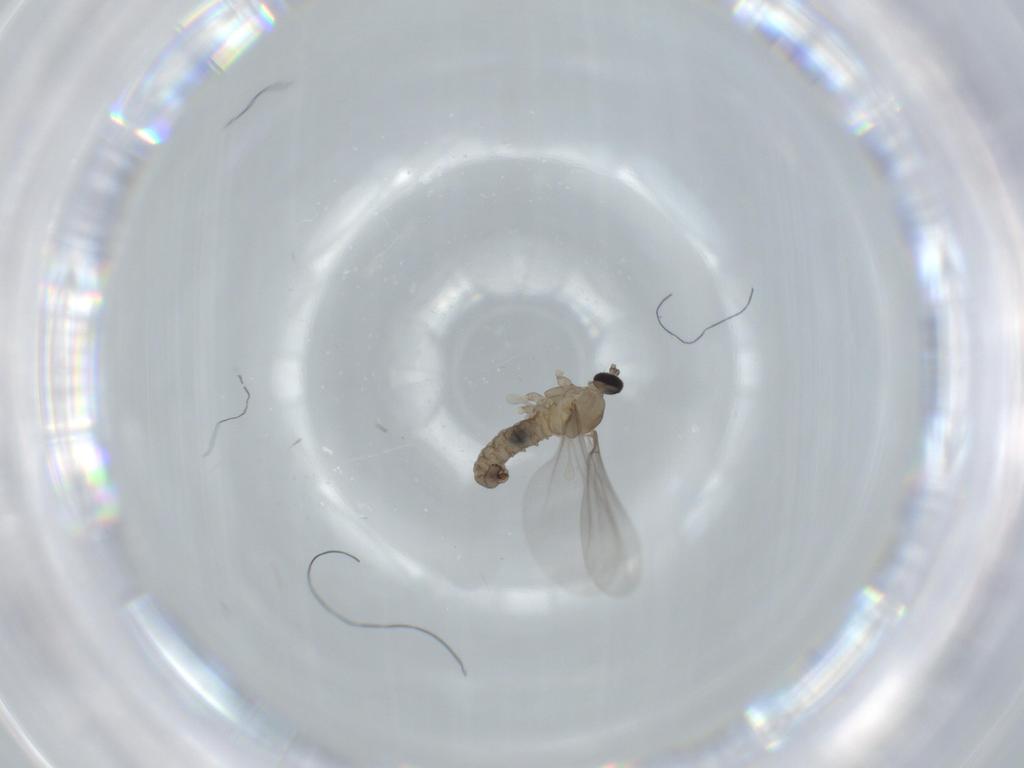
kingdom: Animalia
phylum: Arthropoda
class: Insecta
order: Diptera
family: Cecidomyiidae
